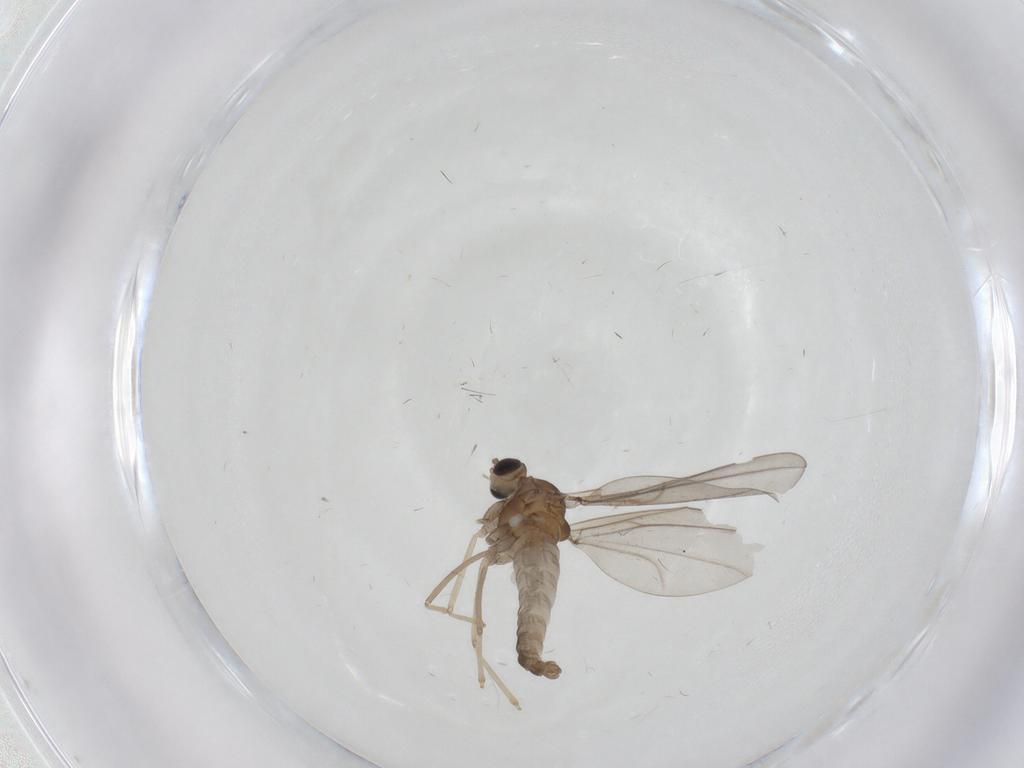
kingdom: Animalia
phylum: Arthropoda
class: Insecta
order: Diptera
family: Cecidomyiidae
